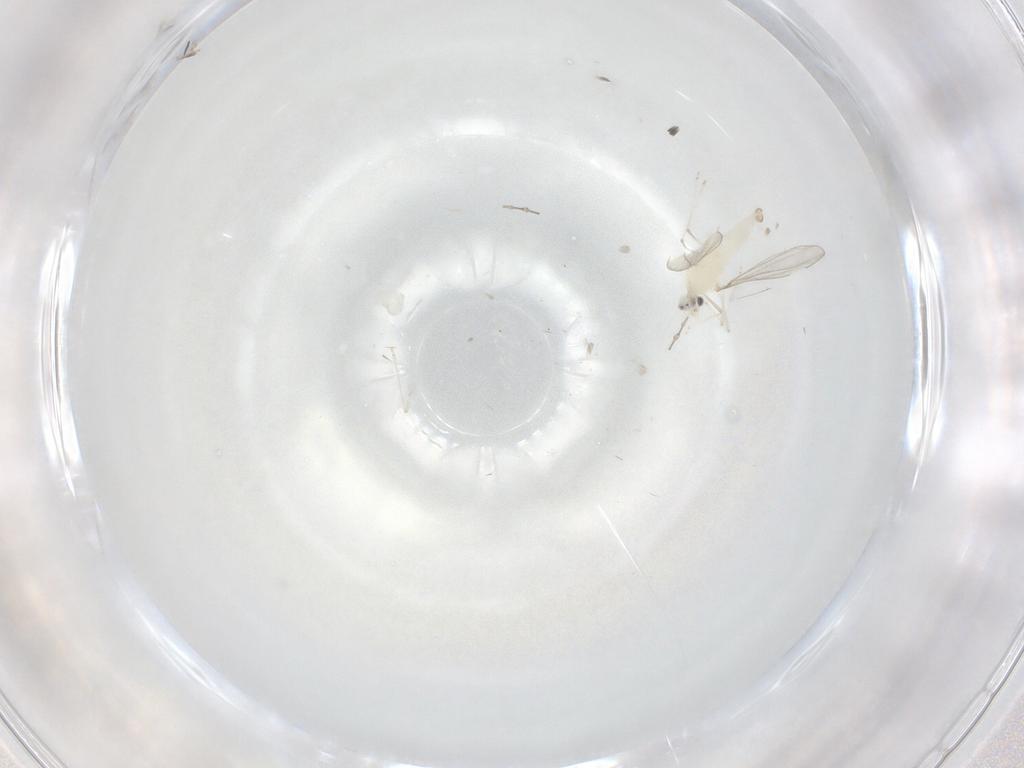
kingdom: Animalia
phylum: Arthropoda
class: Insecta
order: Diptera
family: Cecidomyiidae
